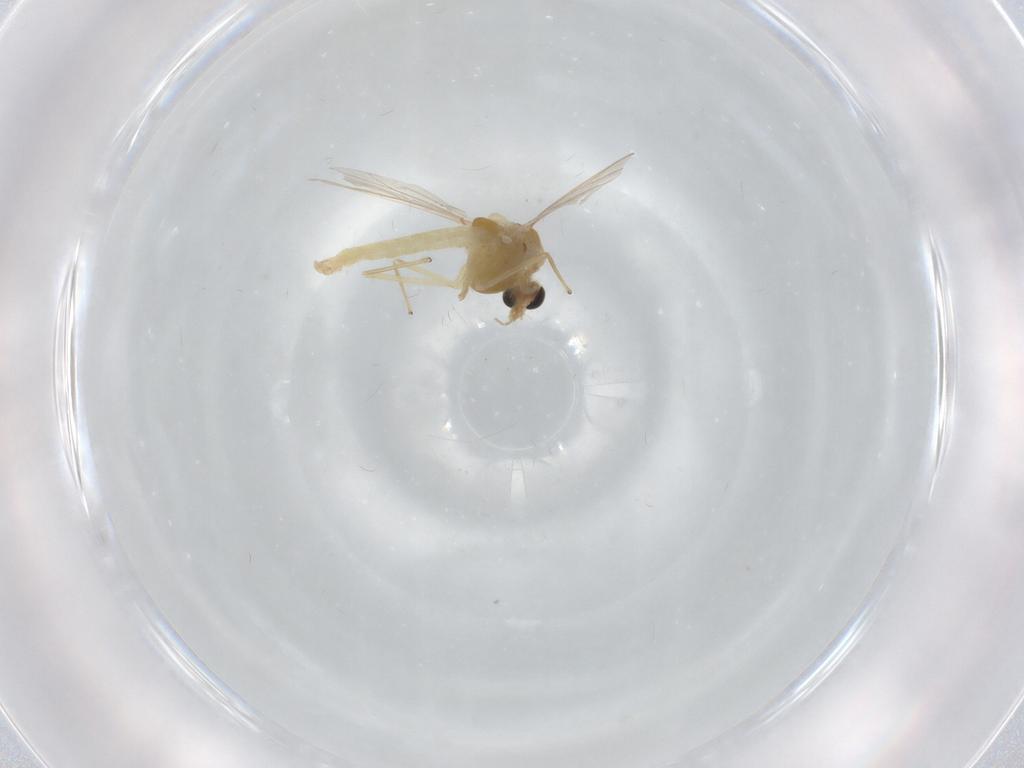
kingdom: Animalia
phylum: Arthropoda
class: Insecta
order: Diptera
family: Chironomidae
